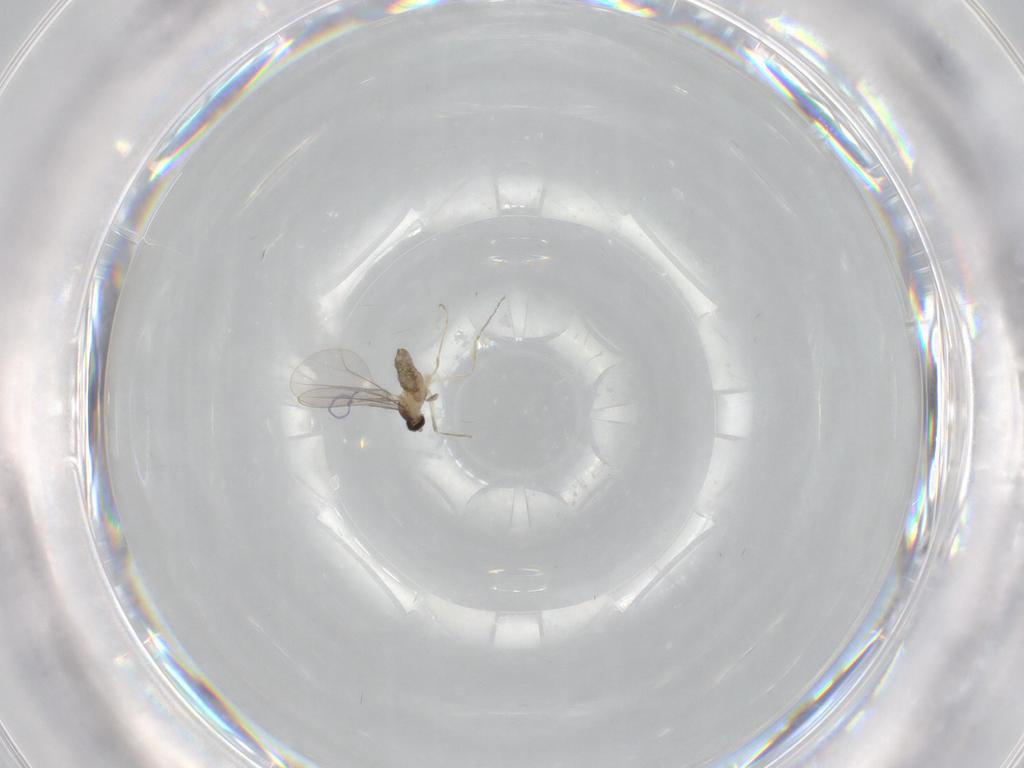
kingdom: Animalia
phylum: Arthropoda
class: Insecta
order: Diptera
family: Cecidomyiidae
